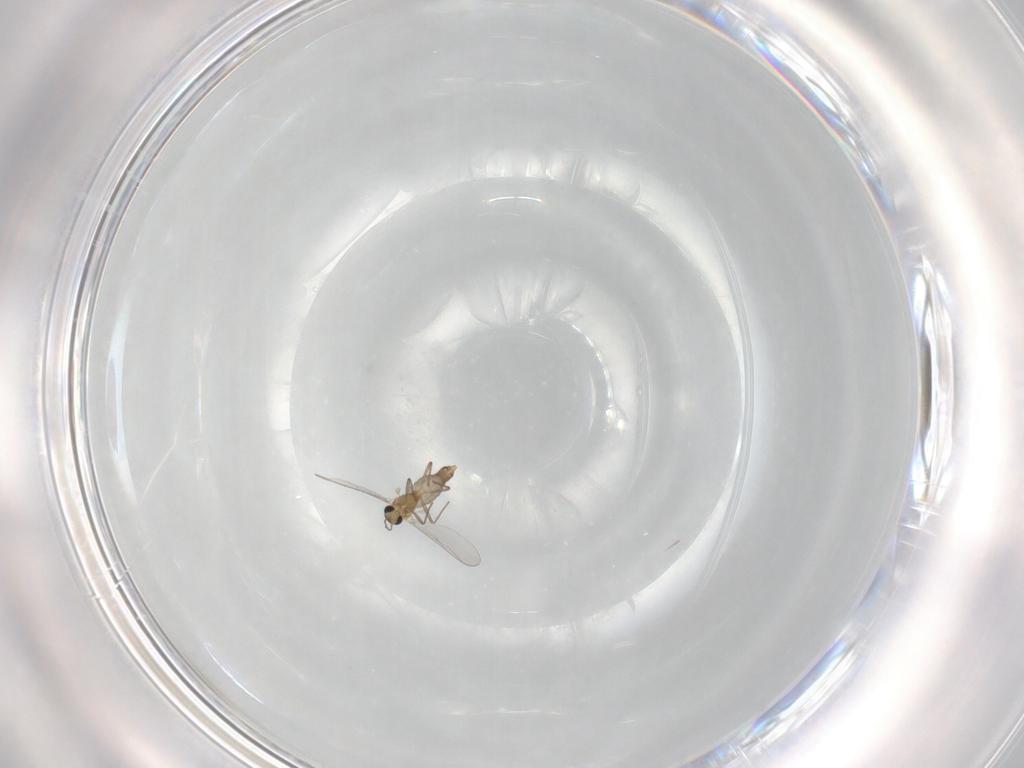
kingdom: Animalia
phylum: Arthropoda
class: Insecta
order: Diptera
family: Chironomidae
